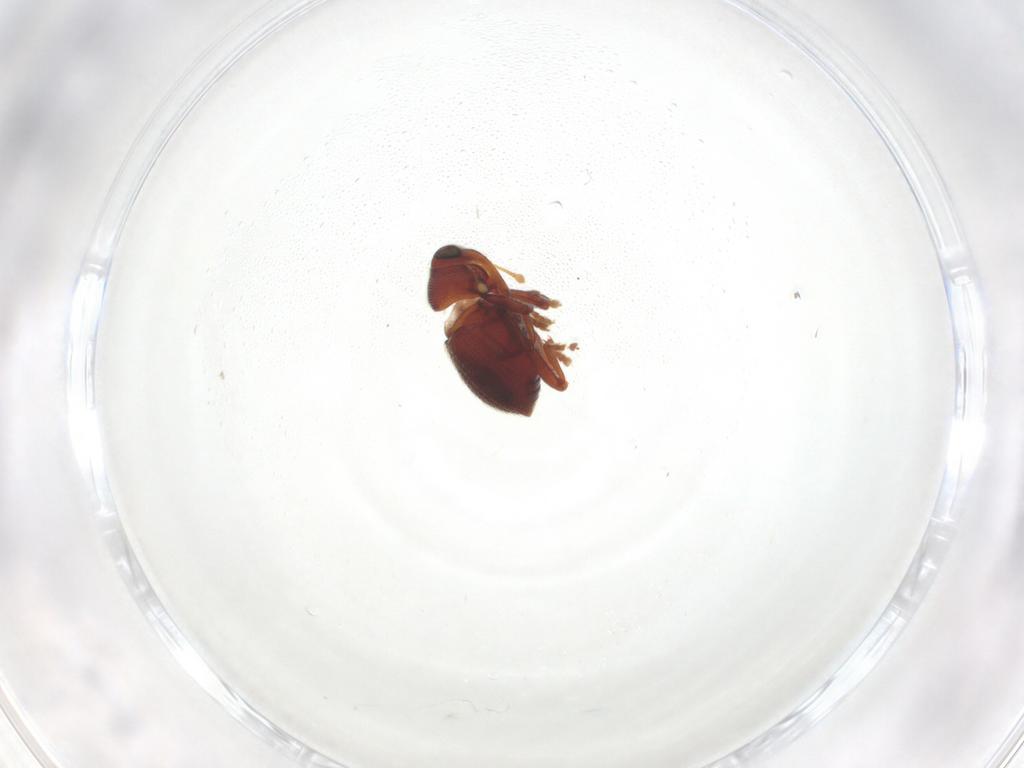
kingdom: Animalia
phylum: Arthropoda
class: Insecta
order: Coleoptera
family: Curculionidae
